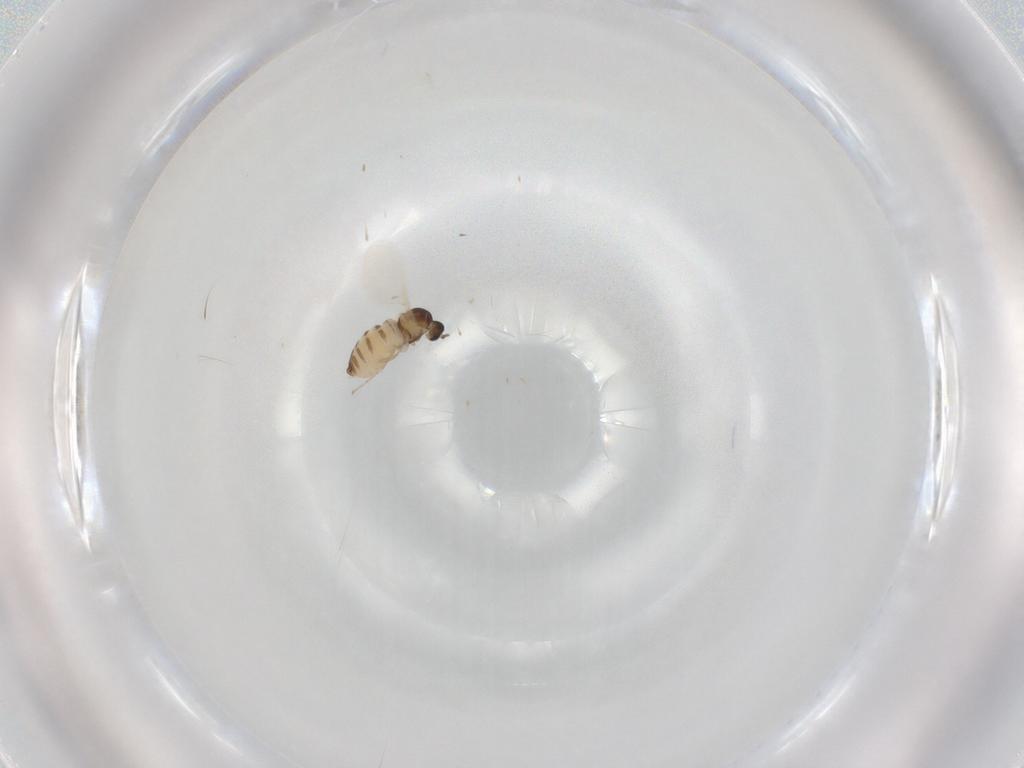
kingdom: Animalia
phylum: Arthropoda
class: Insecta
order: Diptera
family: Cecidomyiidae
